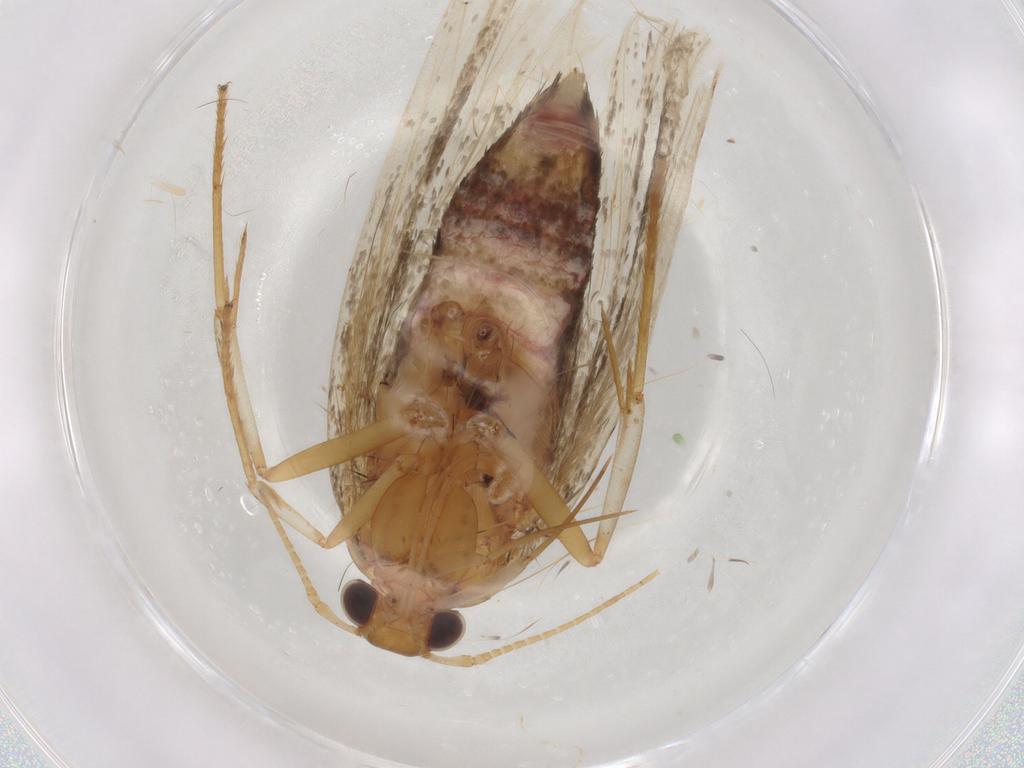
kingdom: Animalia
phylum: Arthropoda
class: Insecta
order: Lepidoptera
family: Lecithoceridae
